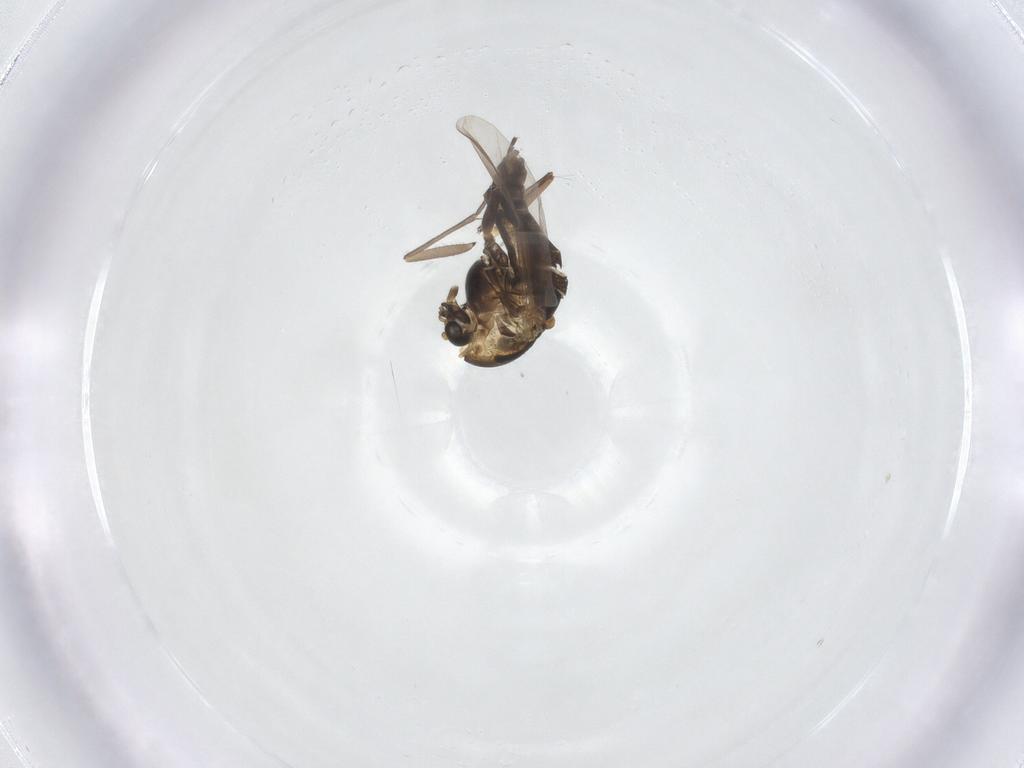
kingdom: Animalia
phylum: Arthropoda
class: Insecta
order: Diptera
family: Sciaridae
